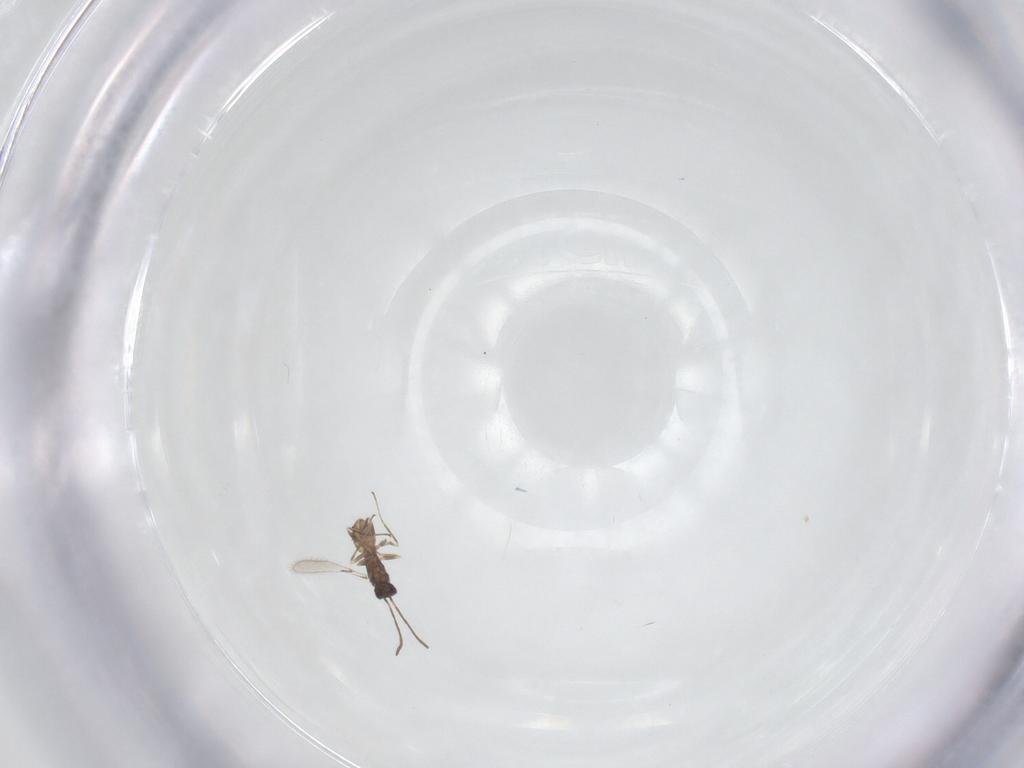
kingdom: Animalia
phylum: Arthropoda
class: Insecta
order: Hymenoptera
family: Mymaridae
